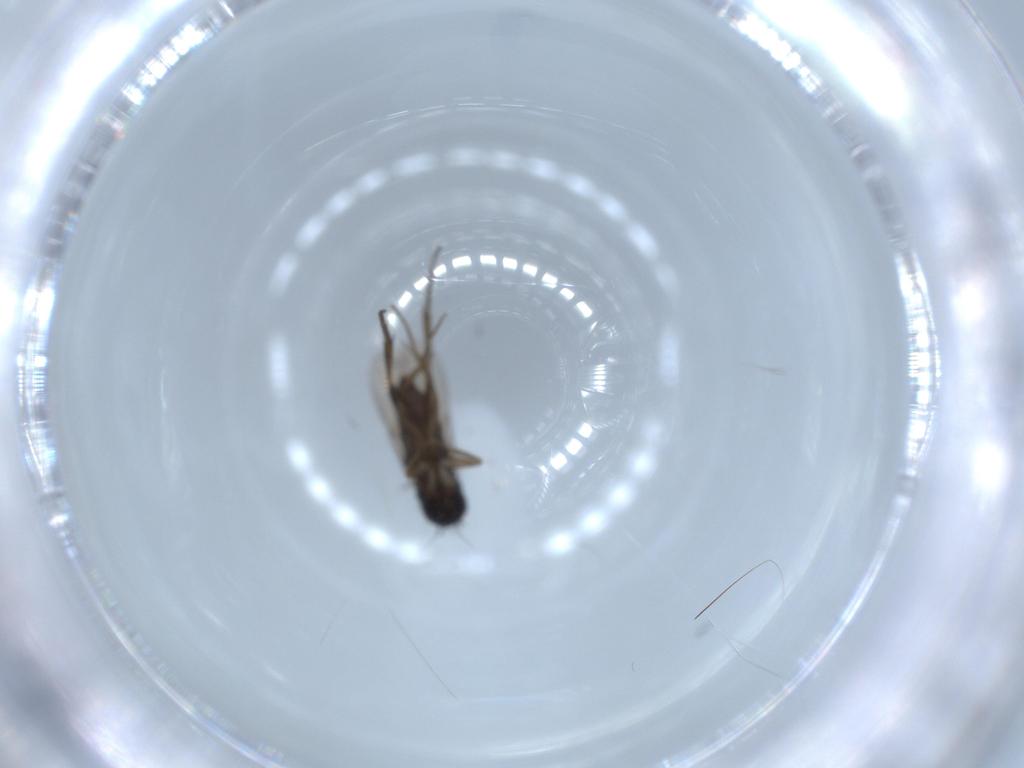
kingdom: Animalia
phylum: Arthropoda
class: Insecta
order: Diptera
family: Phoridae
